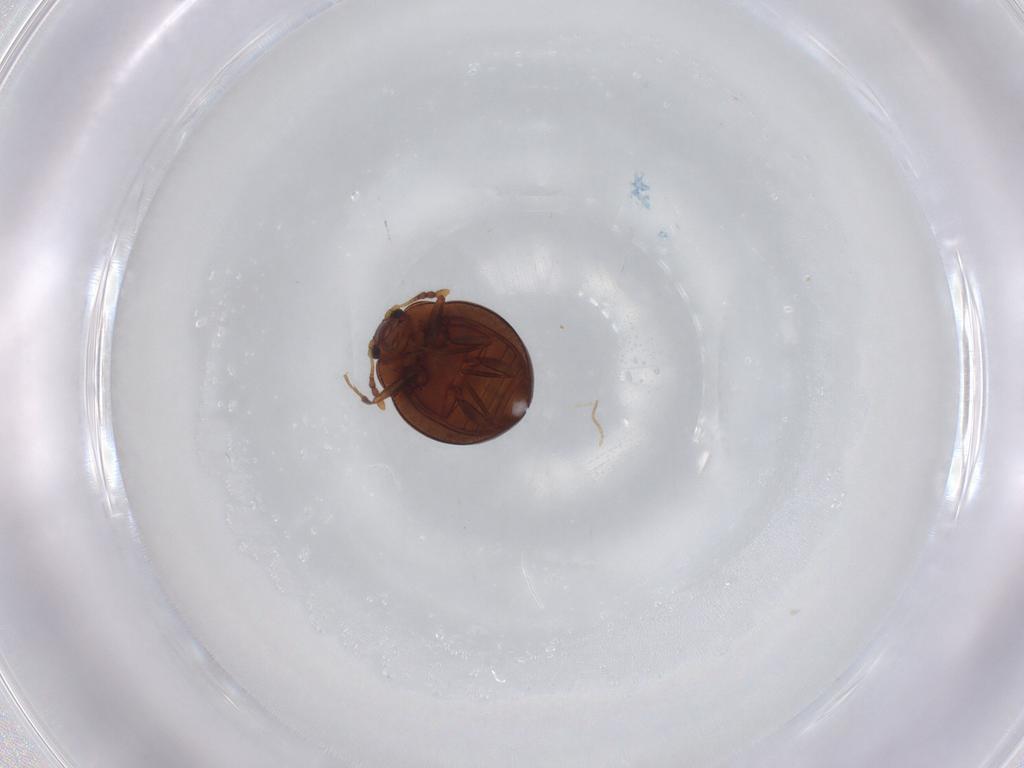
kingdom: Animalia
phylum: Arthropoda
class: Insecta
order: Coleoptera
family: Anamorphidae
